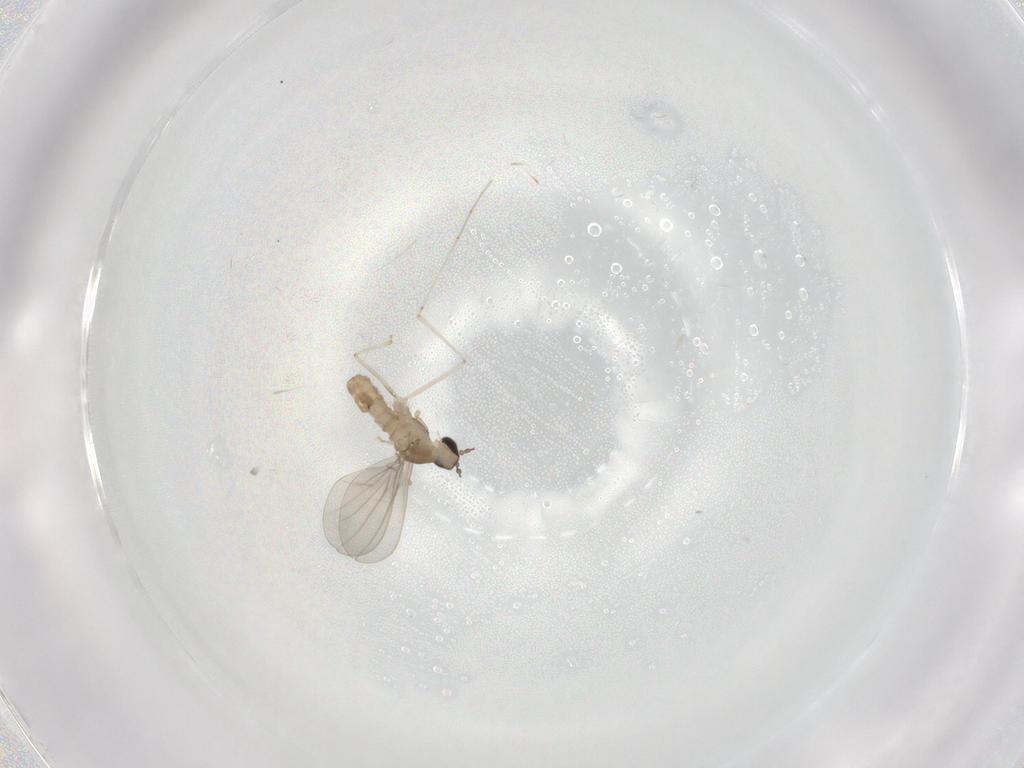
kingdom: Animalia
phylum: Arthropoda
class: Insecta
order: Diptera
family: Cecidomyiidae
